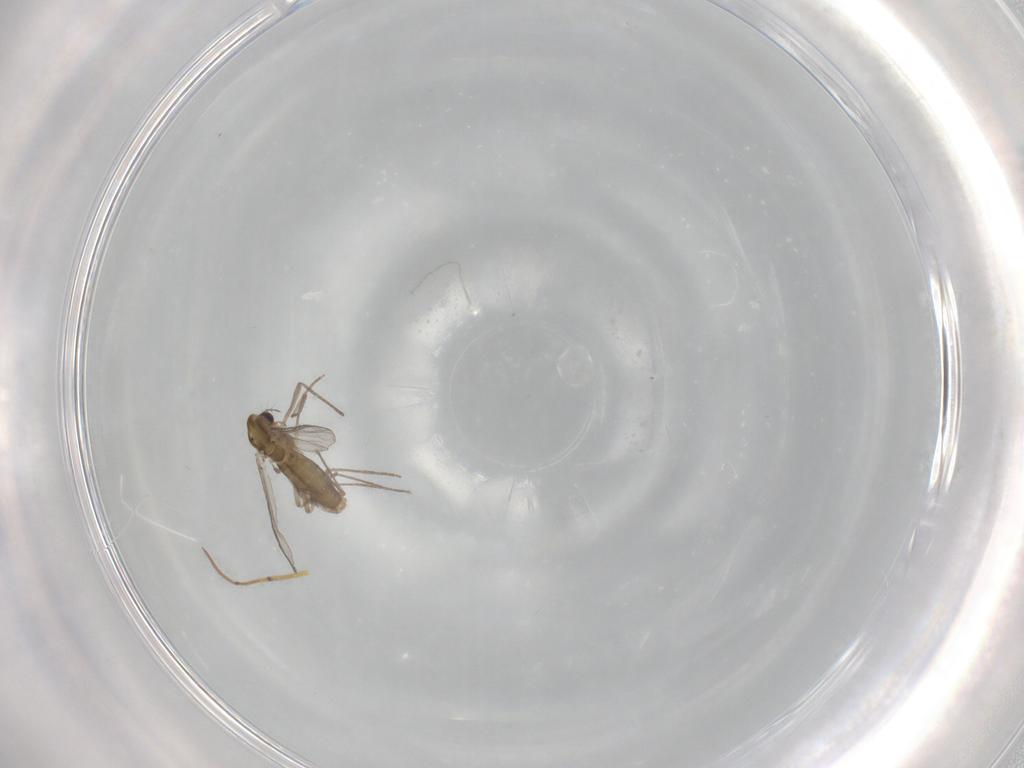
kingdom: Animalia
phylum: Arthropoda
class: Insecta
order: Diptera
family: Chironomidae
